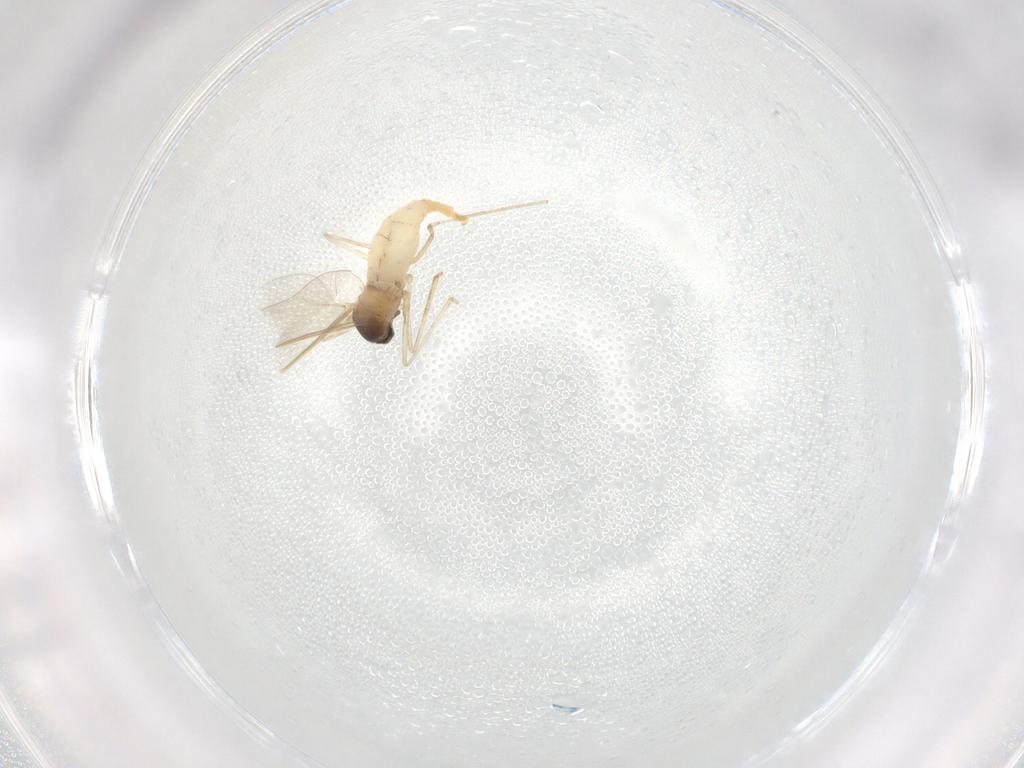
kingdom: Animalia
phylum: Arthropoda
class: Insecta
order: Diptera
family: Cecidomyiidae
